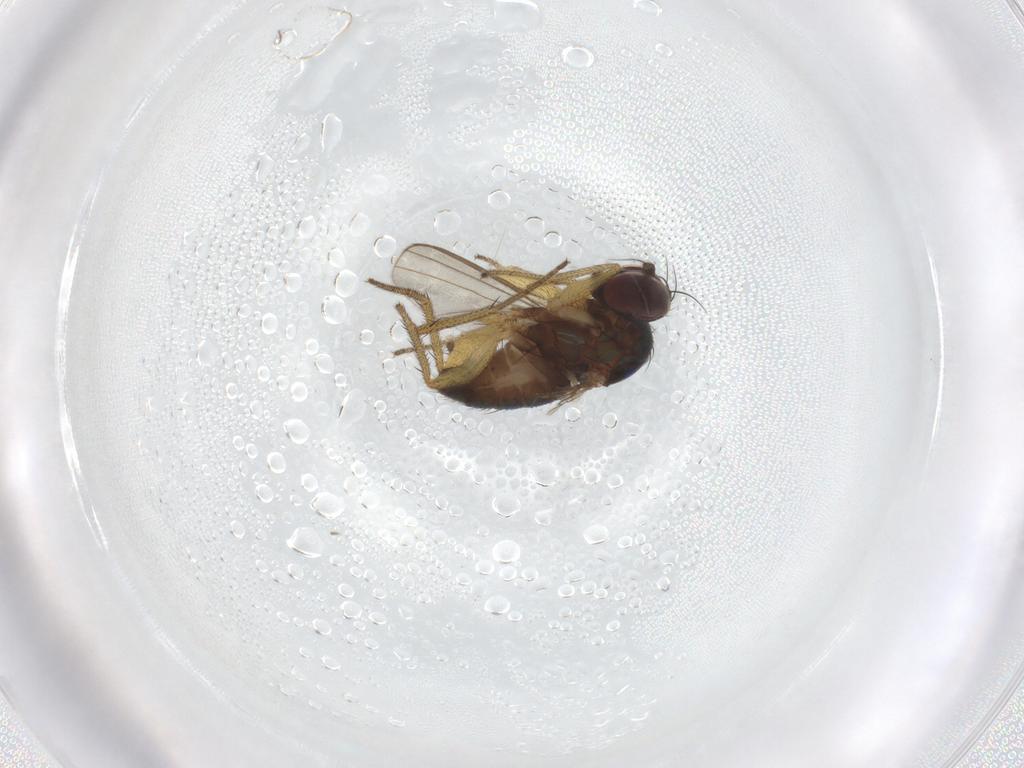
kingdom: Animalia
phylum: Arthropoda
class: Insecta
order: Diptera
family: Dolichopodidae
